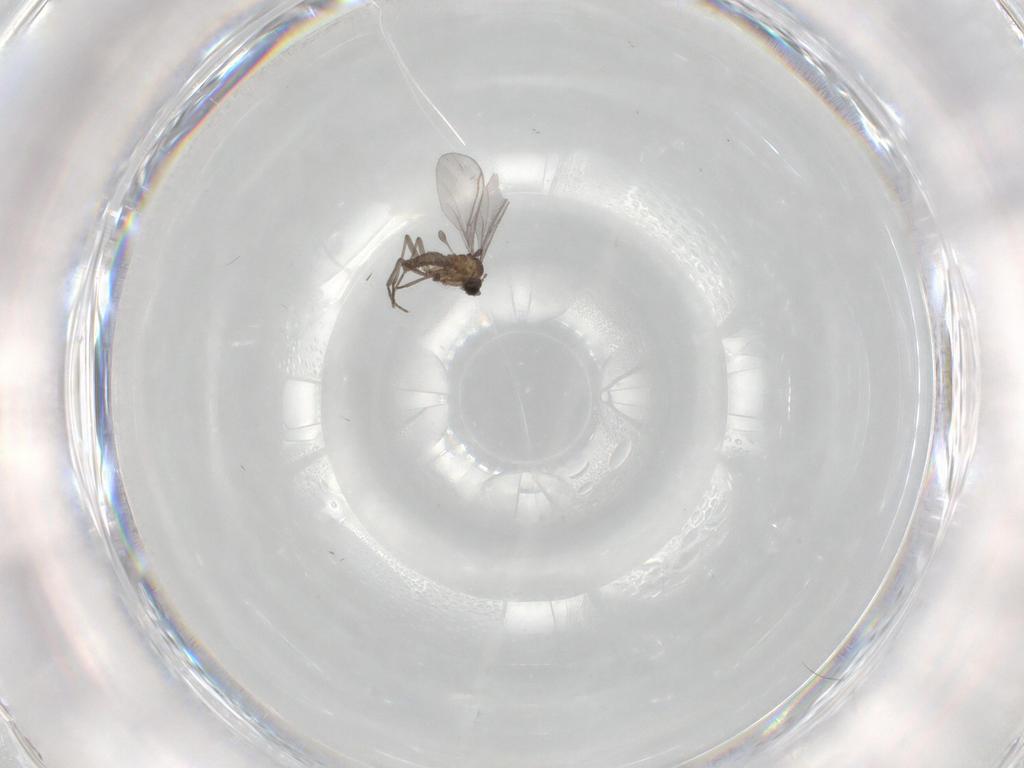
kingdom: Animalia
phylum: Arthropoda
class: Insecta
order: Diptera
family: Sciaridae
